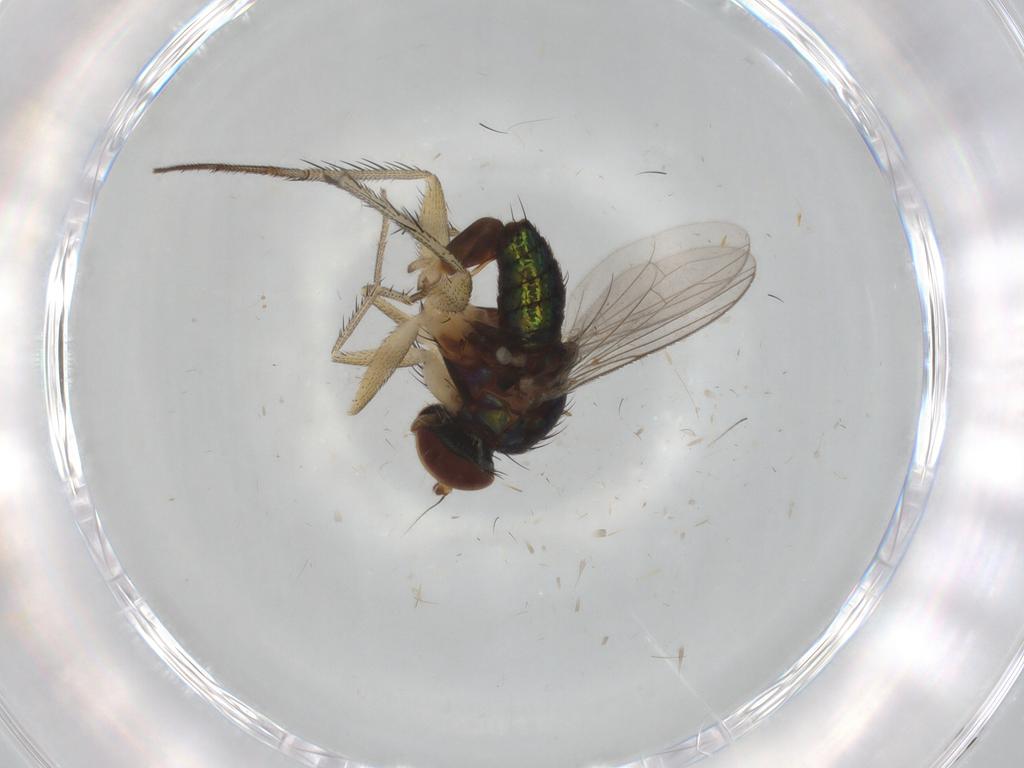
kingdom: Animalia
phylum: Arthropoda
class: Insecta
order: Diptera
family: Dolichopodidae
